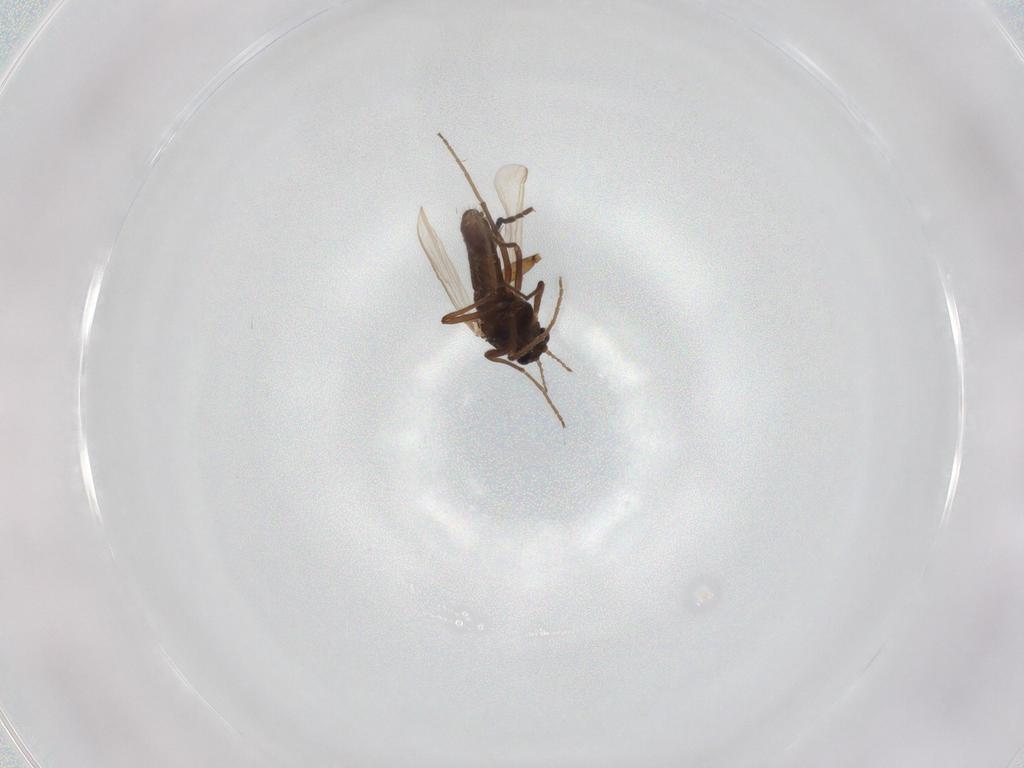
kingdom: Animalia
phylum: Arthropoda
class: Insecta
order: Diptera
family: Chironomidae
